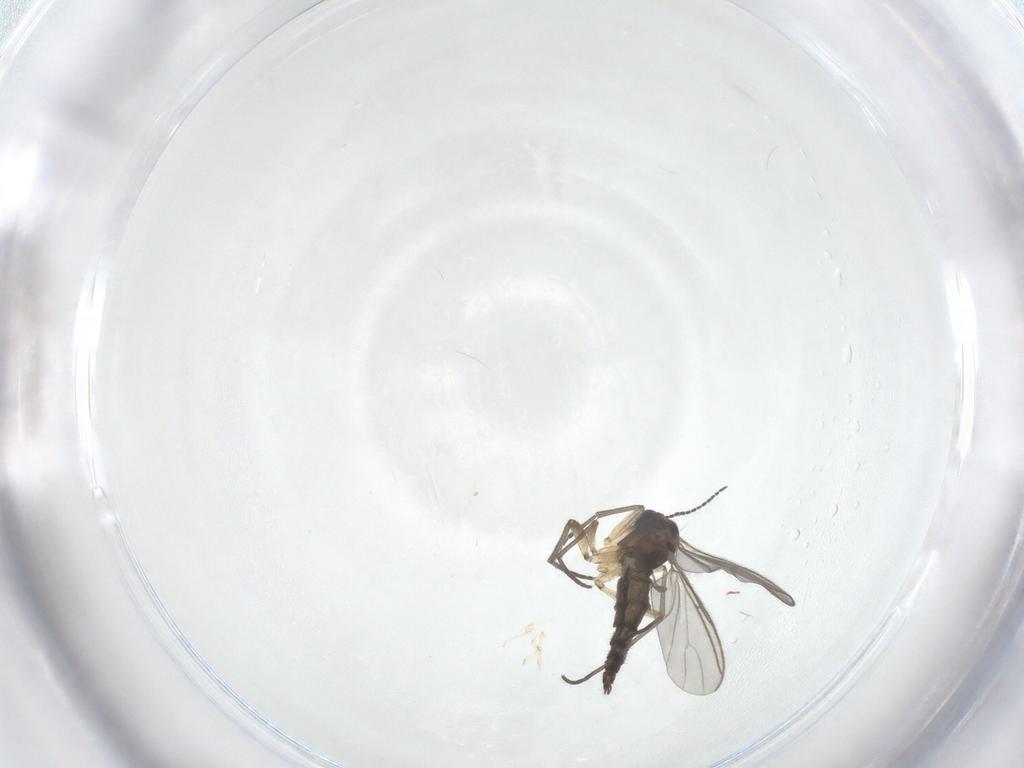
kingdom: Animalia
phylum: Arthropoda
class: Insecta
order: Diptera
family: Sciaridae
